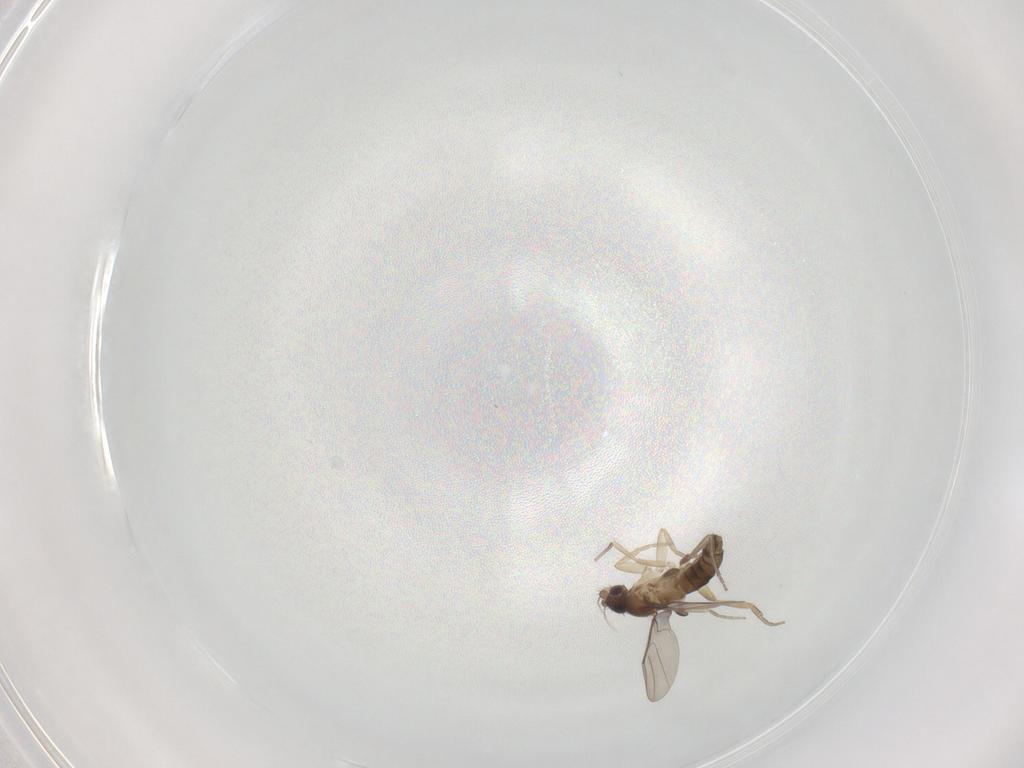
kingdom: Animalia
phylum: Arthropoda
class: Insecta
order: Diptera
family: Phoridae
